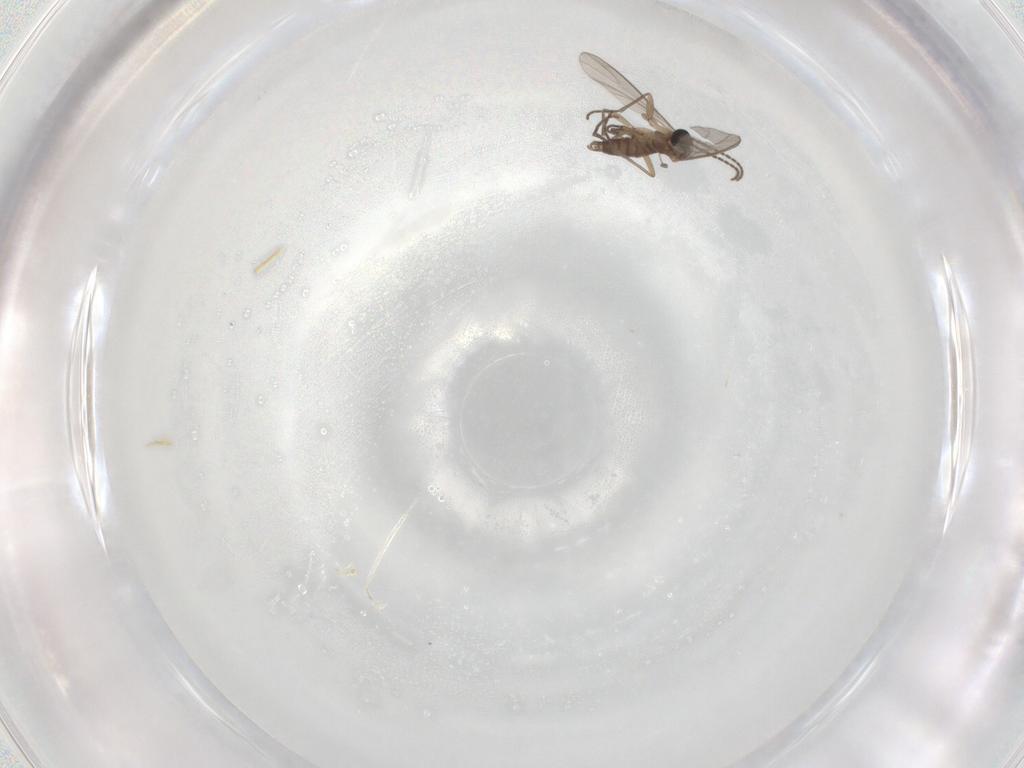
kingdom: Animalia
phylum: Arthropoda
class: Insecta
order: Diptera
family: Sciaridae
